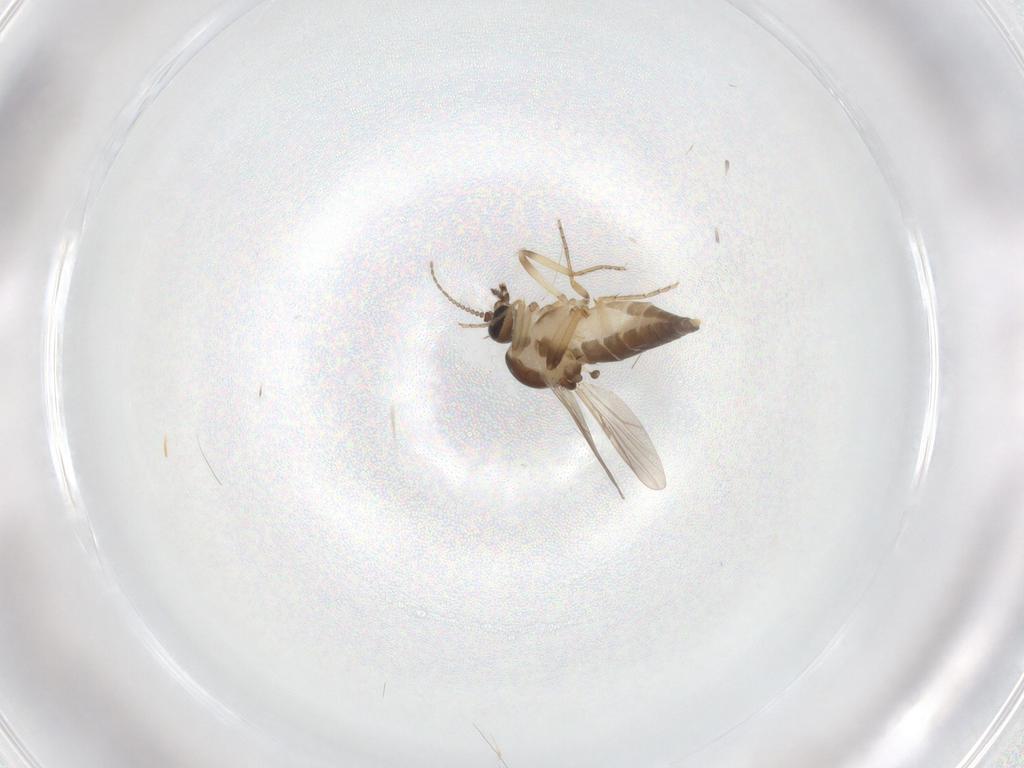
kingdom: Animalia
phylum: Arthropoda
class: Insecta
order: Diptera
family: Ceratopogonidae
